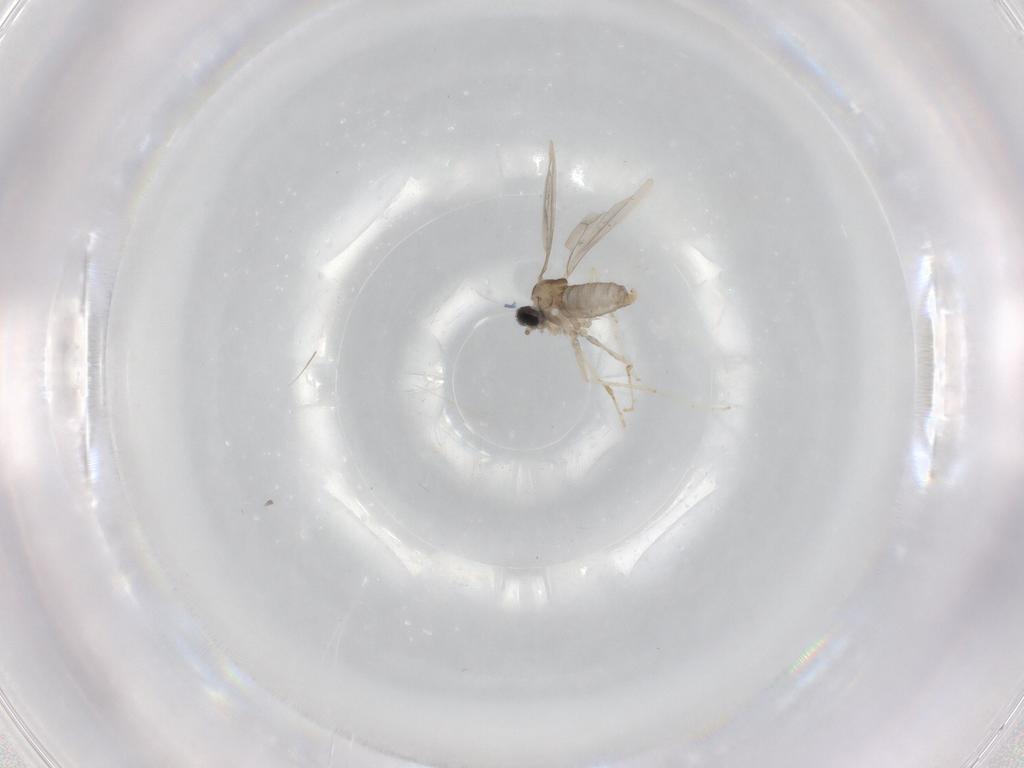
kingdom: Animalia
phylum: Arthropoda
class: Insecta
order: Diptera
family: Cecidomyiidae
